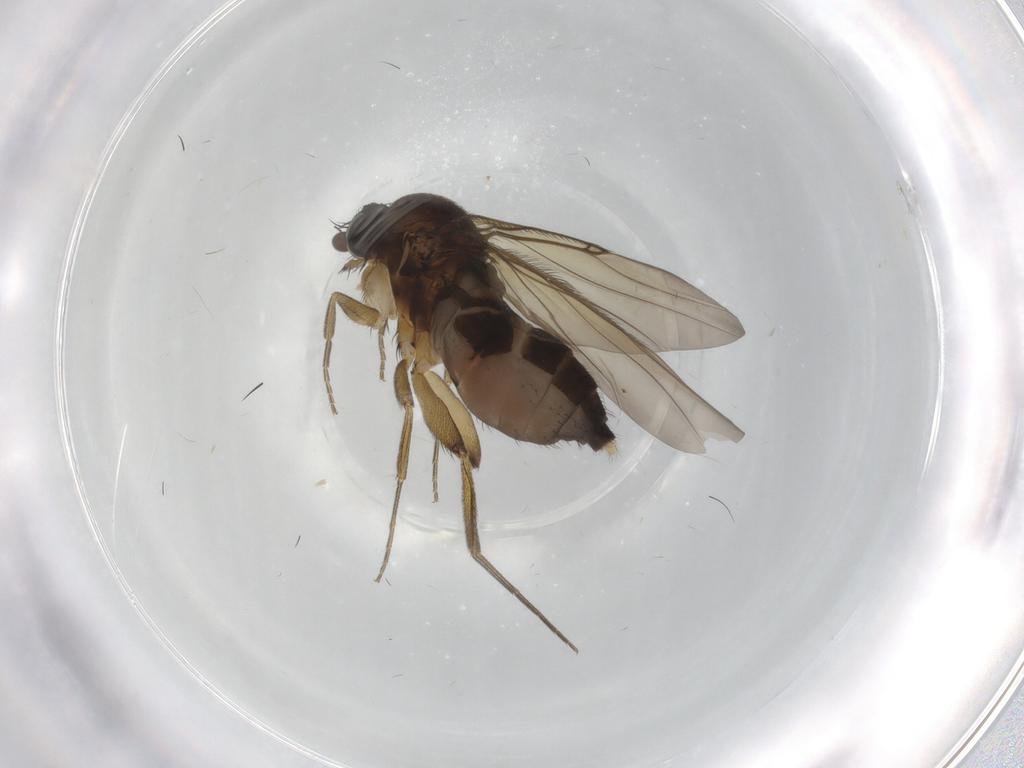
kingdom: Animalia
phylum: Arthropoda
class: Insecta
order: Diptera
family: Phoridae
